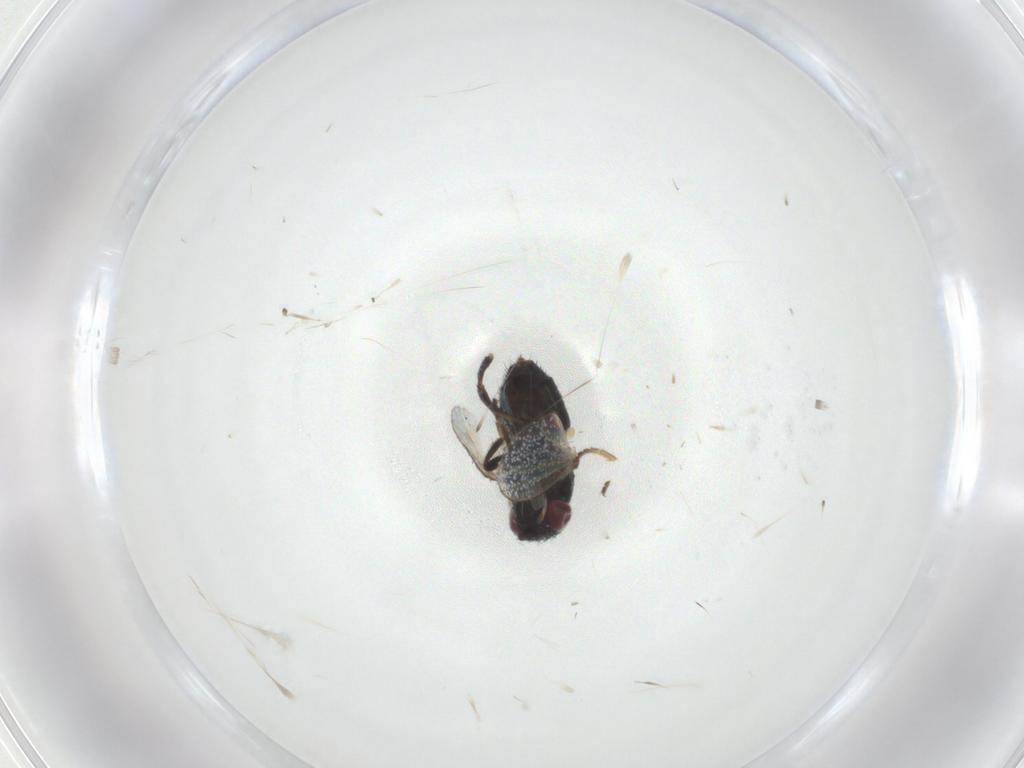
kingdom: Animalia
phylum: Arthropoda
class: Insecta
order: Diptera
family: Milichiidae
